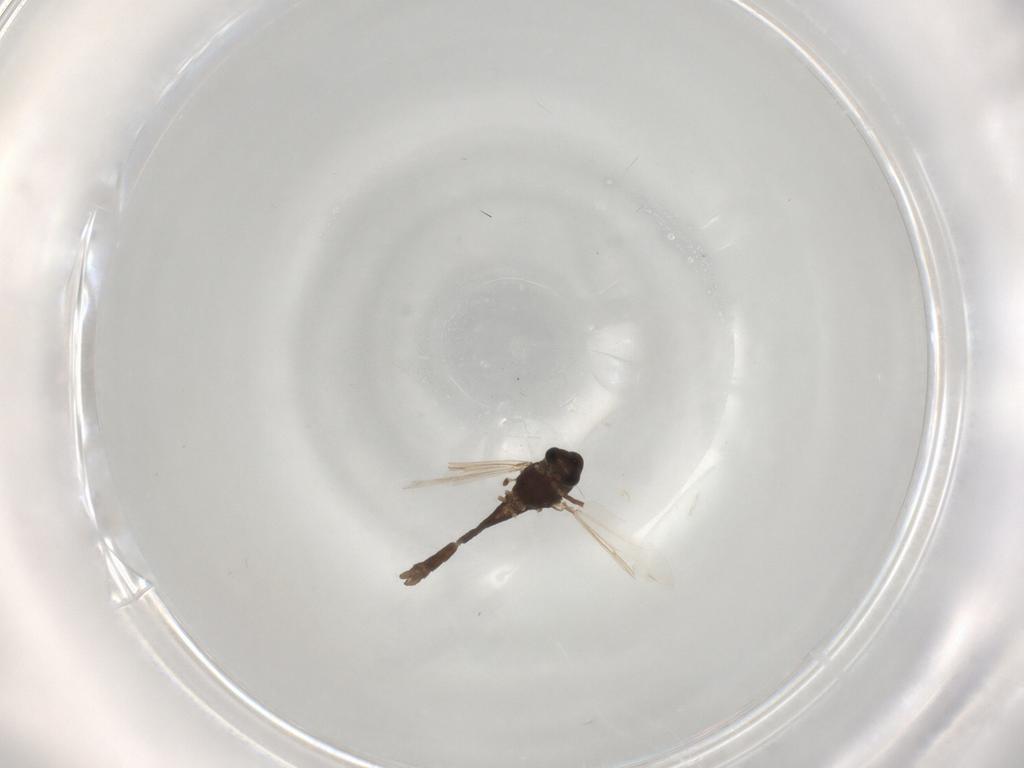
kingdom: Animalia
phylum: Arthropoda
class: Insecta
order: Diptera
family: Chironomidae
